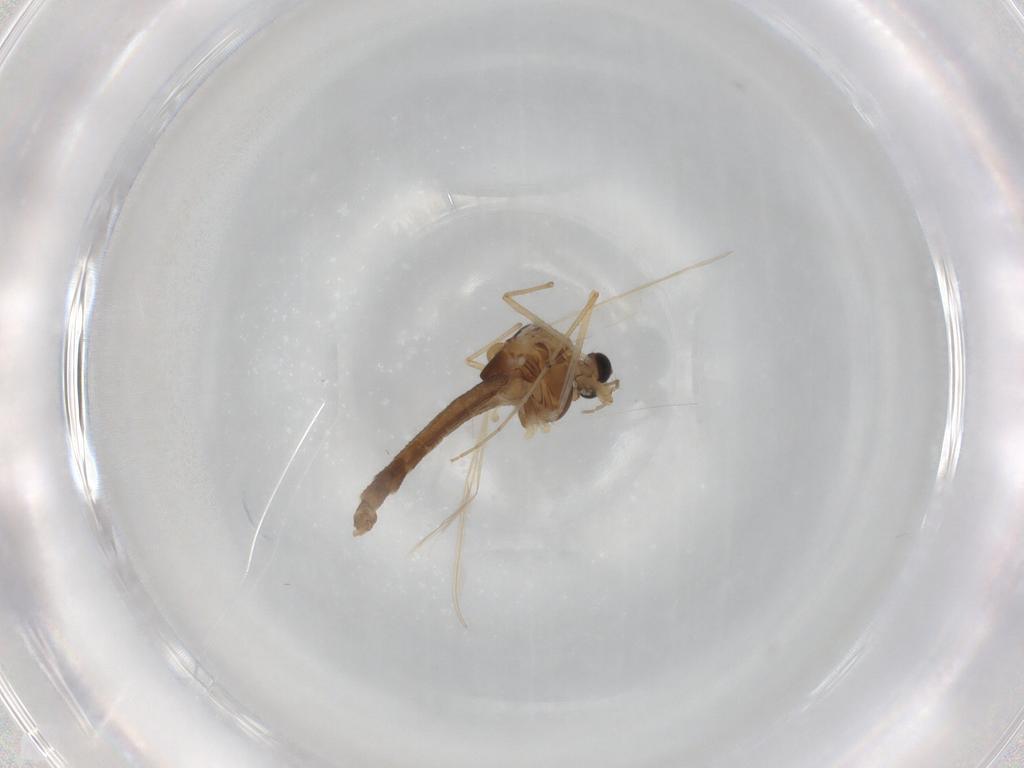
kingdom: Animalia
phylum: Arthropoda
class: Insecta
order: Diptera
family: Chironomidae
